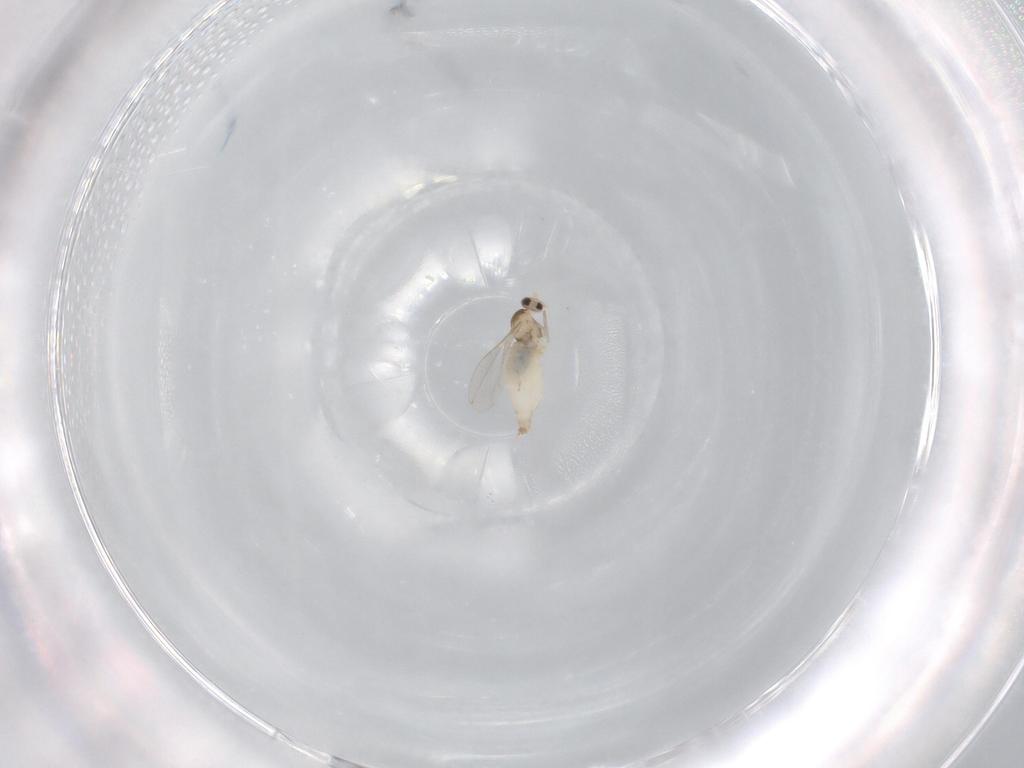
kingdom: Animalia
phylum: Arthropoda
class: Insecta
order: Diptera
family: Cecidomyiidae
